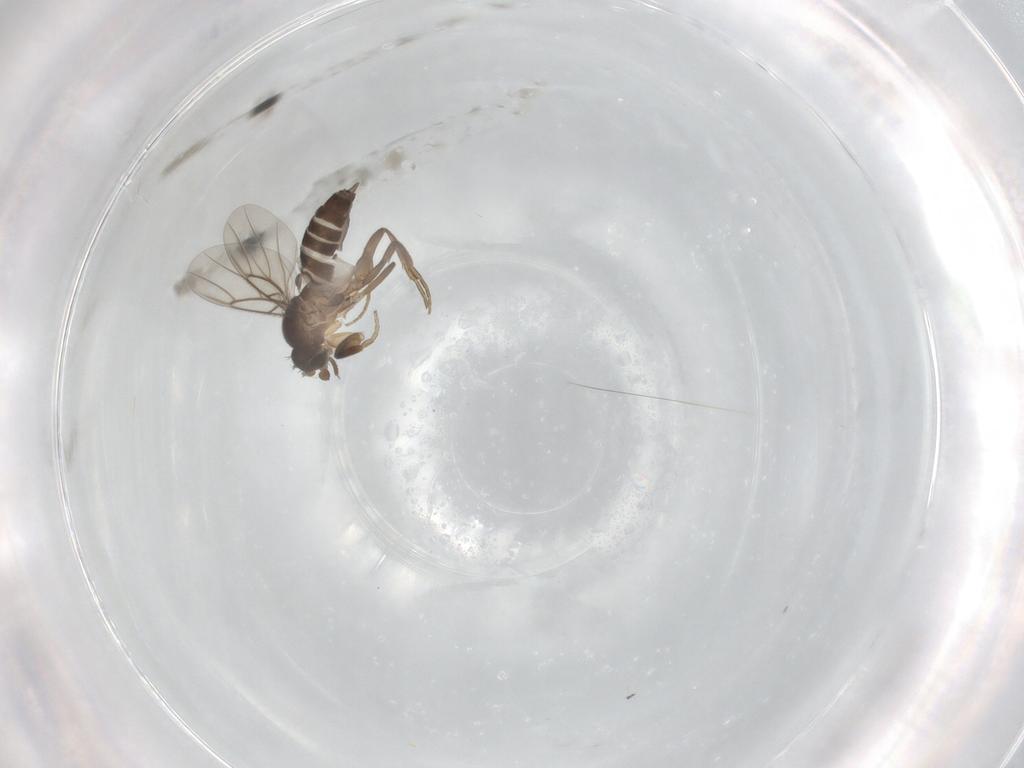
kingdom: Animalia
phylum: Arthropoda
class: Insecta
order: Diptera
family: Phoridae
